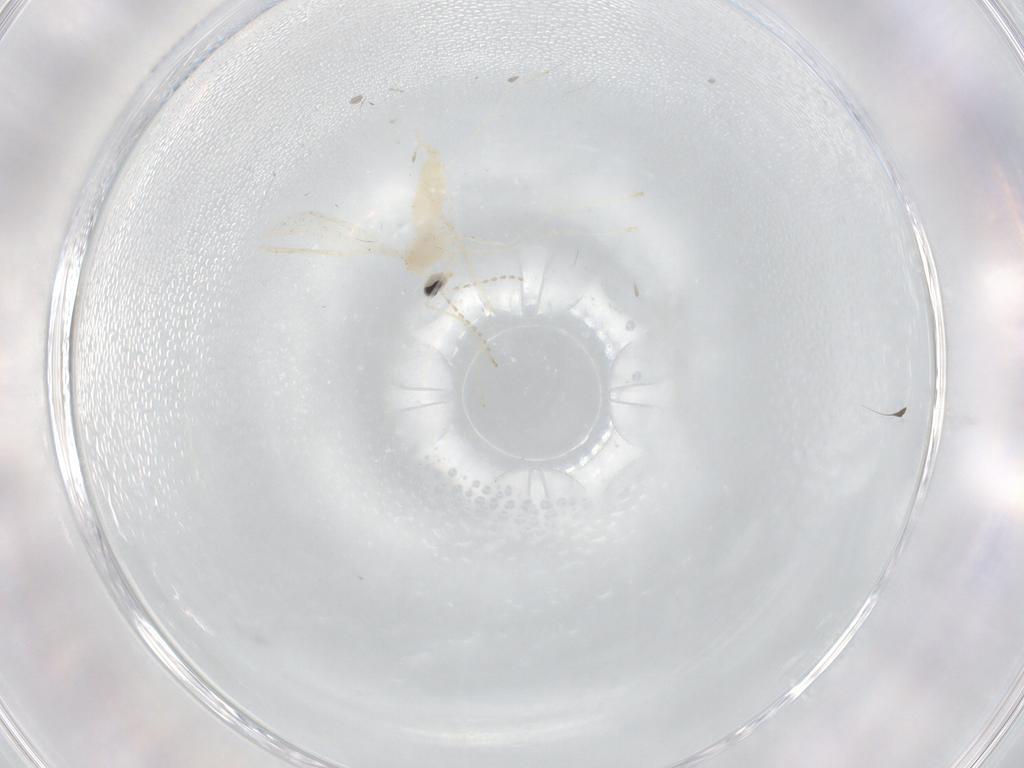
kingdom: Animalia
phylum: Arthropoda
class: Insecta
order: Diptera
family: Cecidomyiidae
